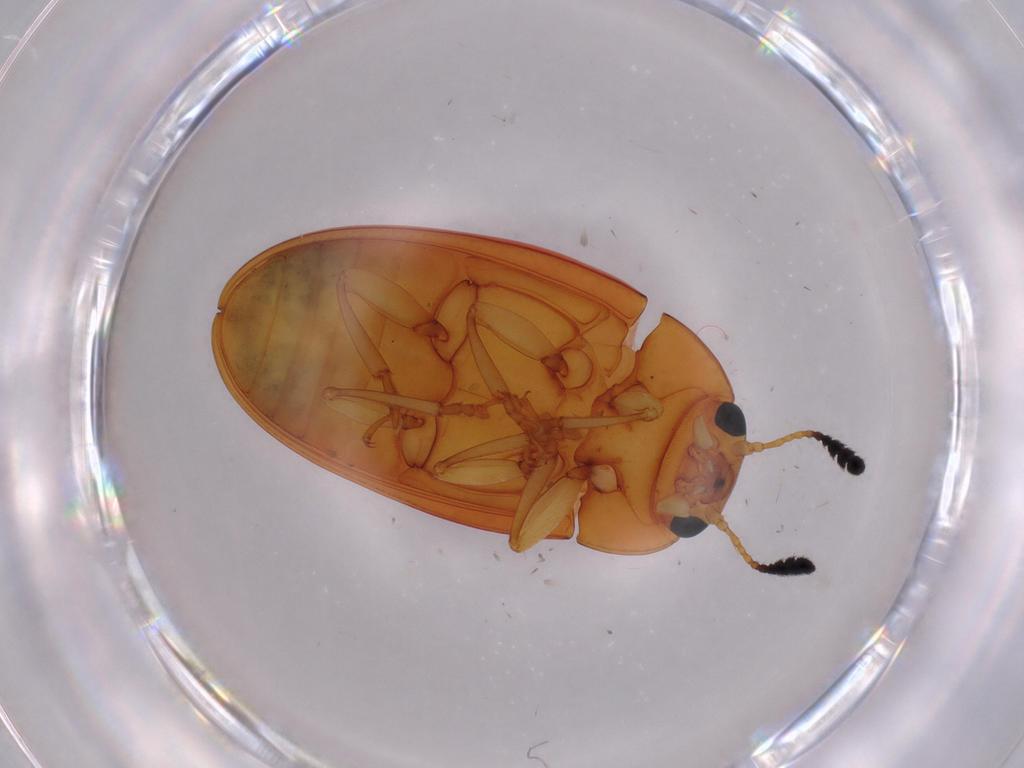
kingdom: Animalia
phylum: Arthropoda
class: Insecta
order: Coleoptera
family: Erotylidae
